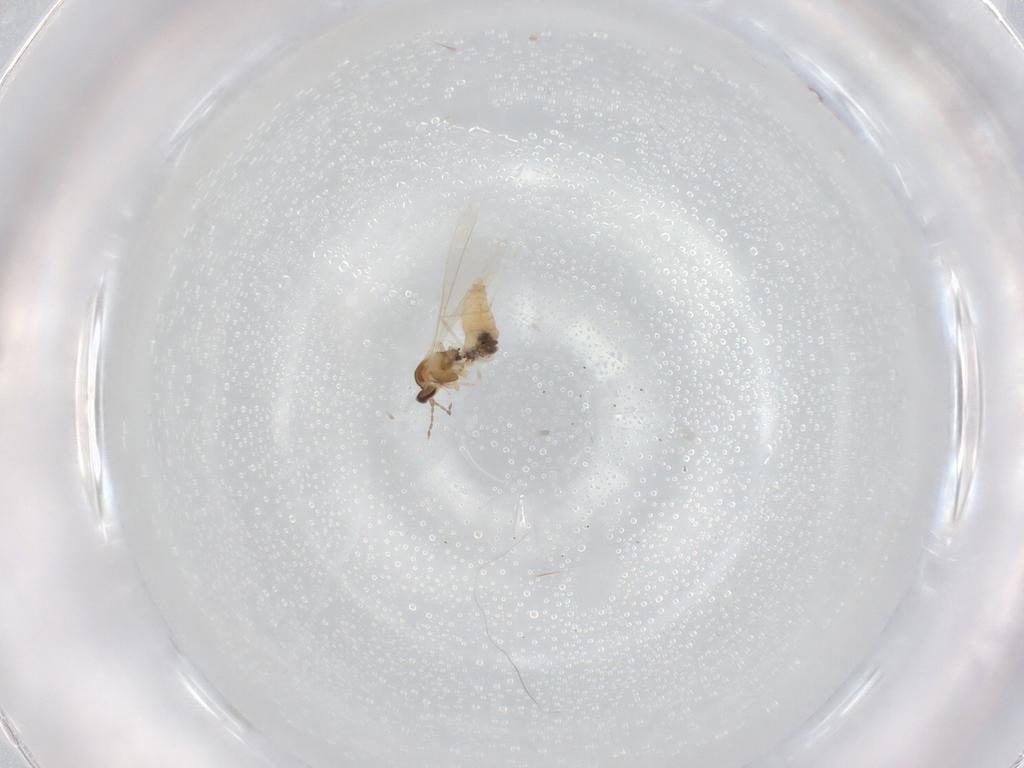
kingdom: Animalia
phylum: Arthropoda
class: Insecta
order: Diptera
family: Cecidomyiidae
